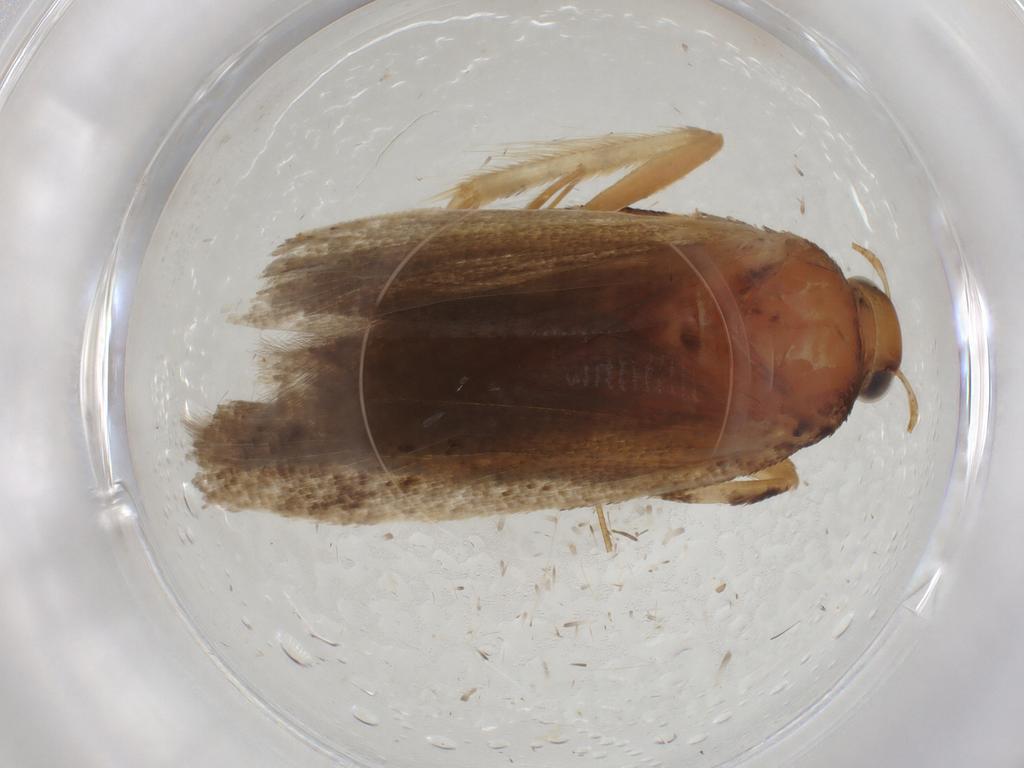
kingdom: Animalia
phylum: Arthropoda
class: Insecta
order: Lepidoptera
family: Gelechiidae
